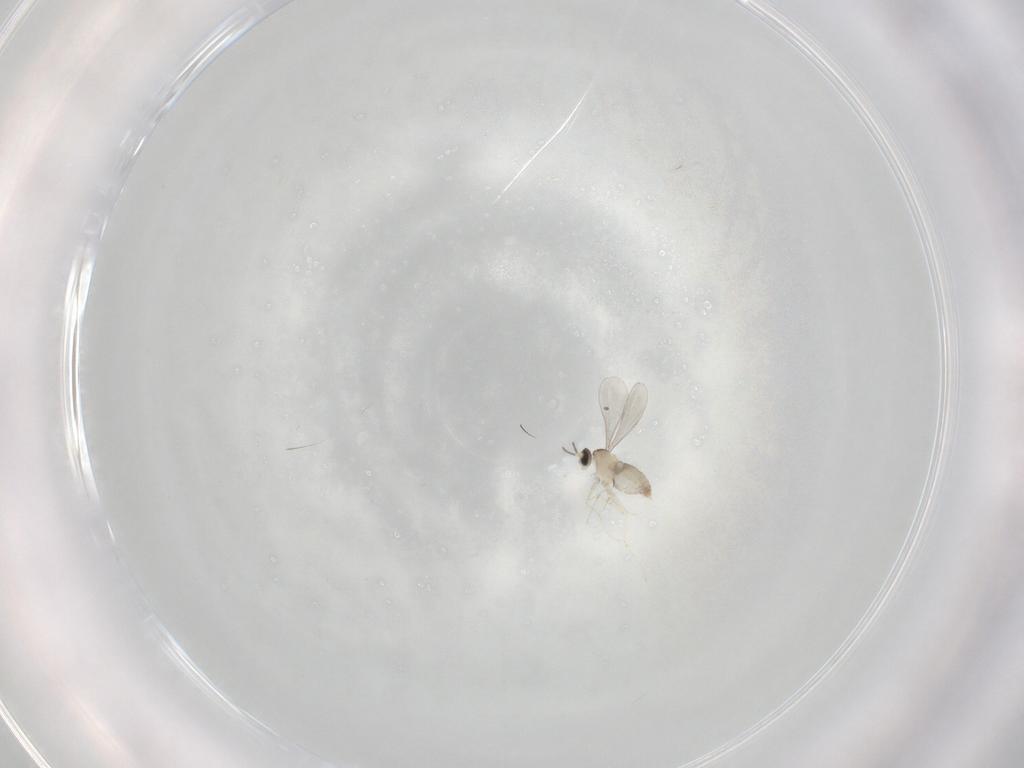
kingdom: Animalia
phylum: Arthropoda
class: Insecta
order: Diptera
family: Cecidomyiidae
